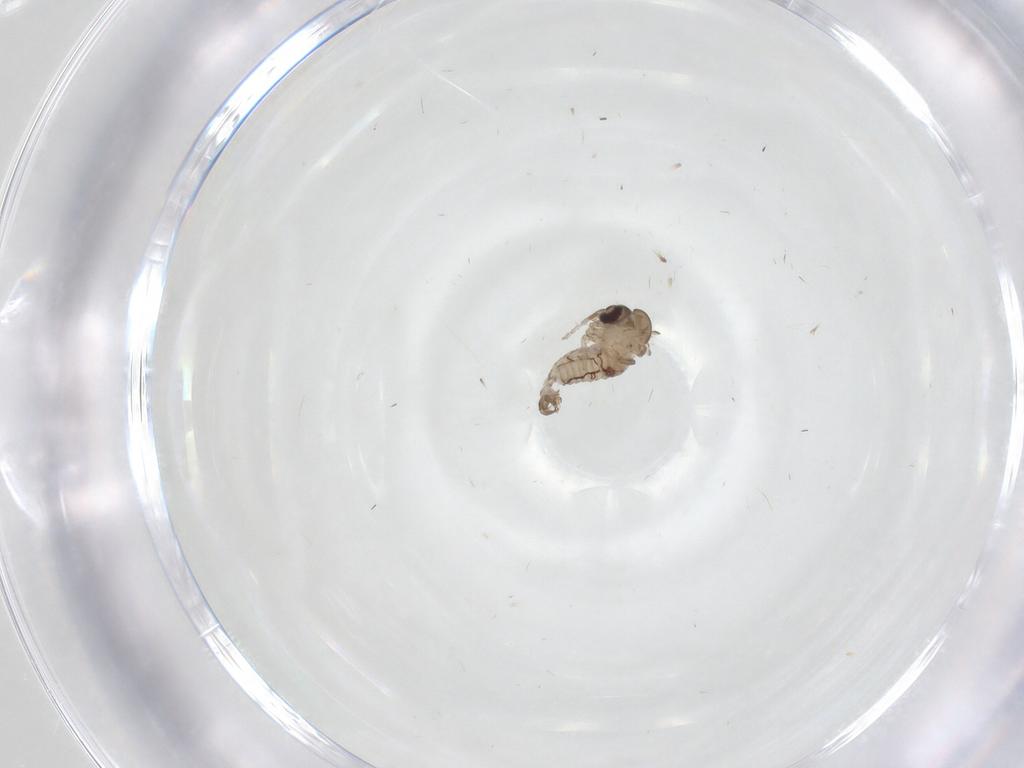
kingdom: Animalia
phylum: Arthropoda
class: Insecta
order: Diptera
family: Psychodidae
